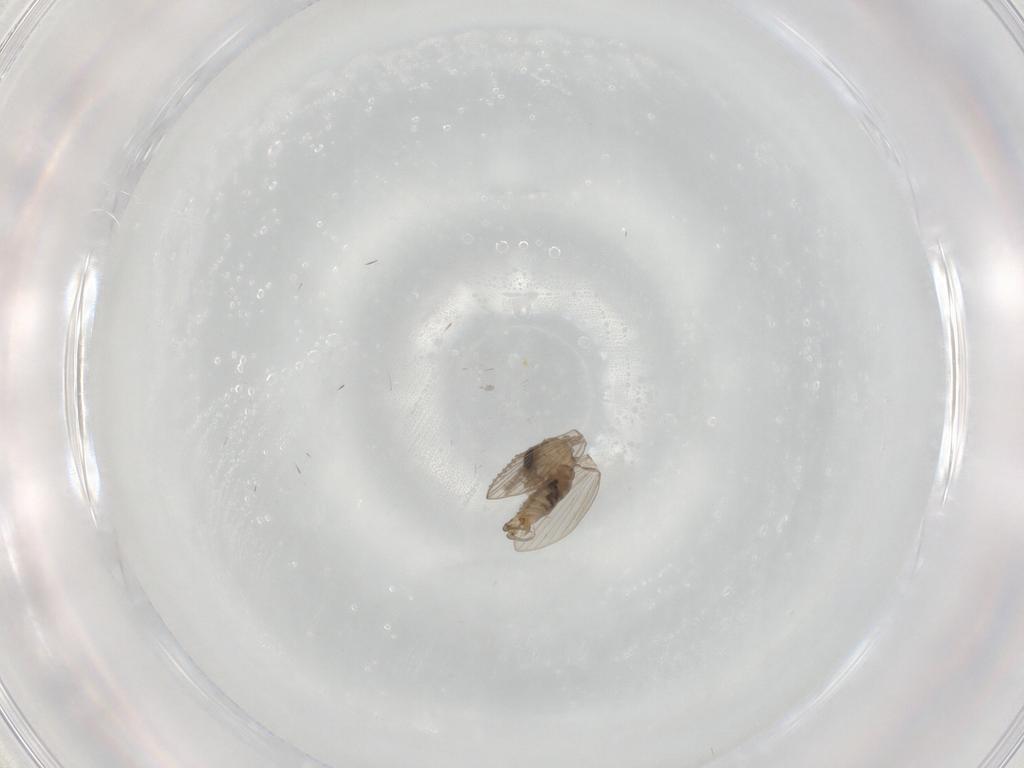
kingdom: Animalia
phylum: Arthropoda
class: Insecta
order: Diptera
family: Psychodidae
